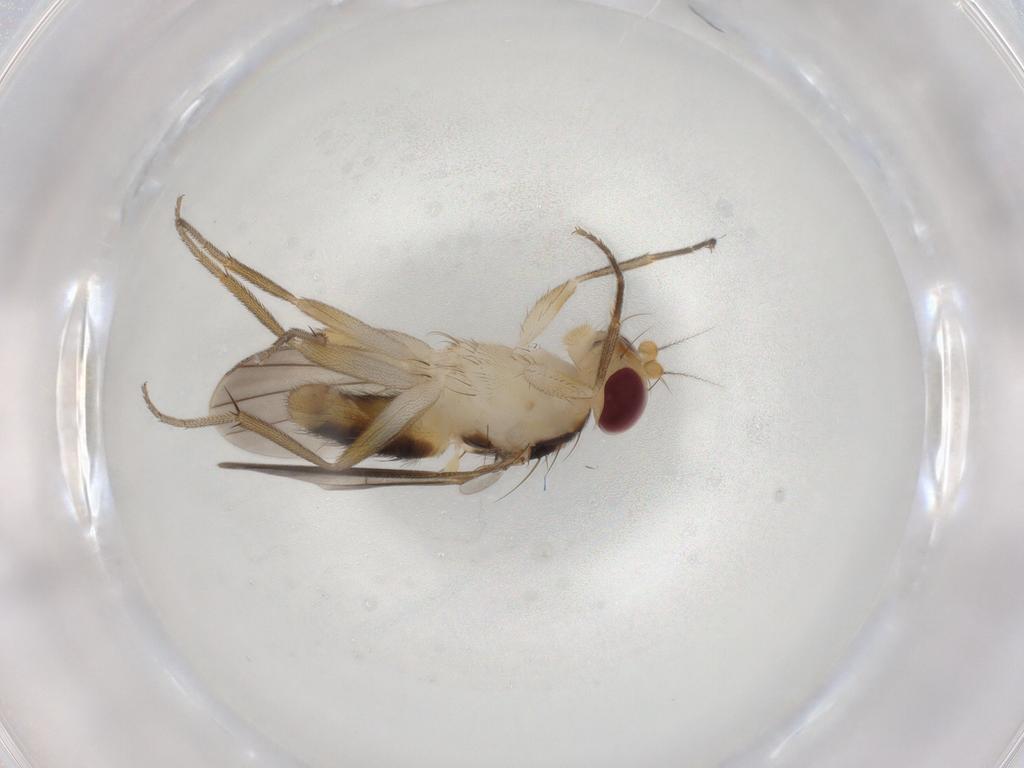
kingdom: Animalia
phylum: Arthropoda
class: Insecta
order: Diptera
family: Clusiidae
